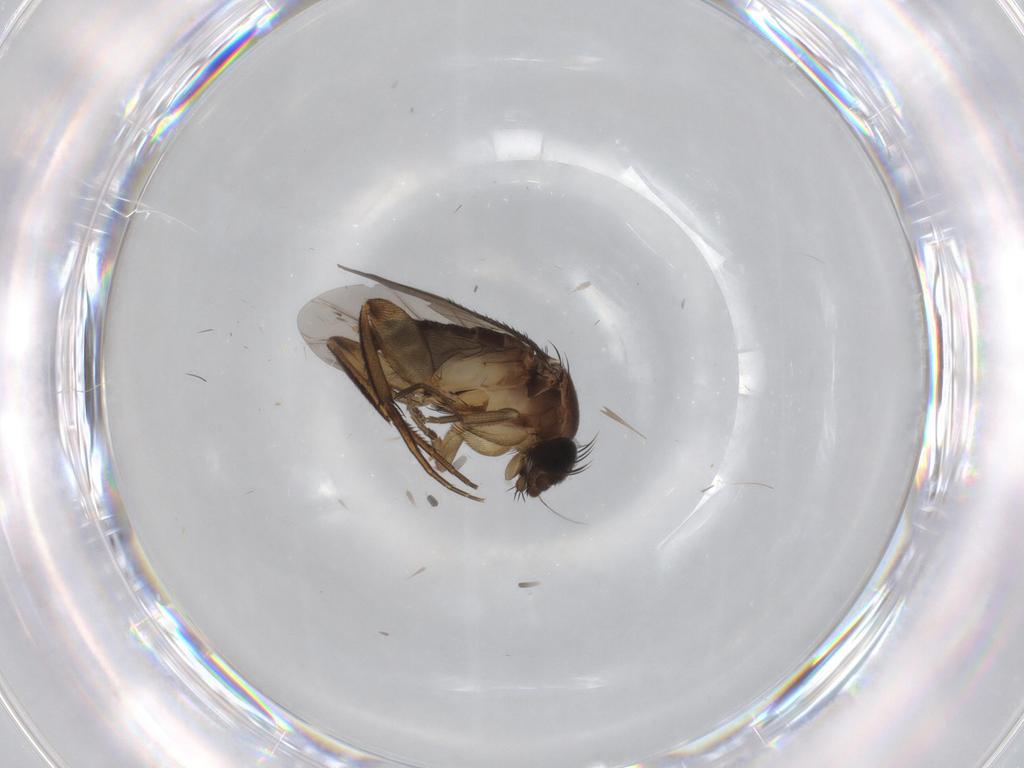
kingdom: Animalia
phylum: Arthropoda
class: Insecta
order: Diptera
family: Phoridae
